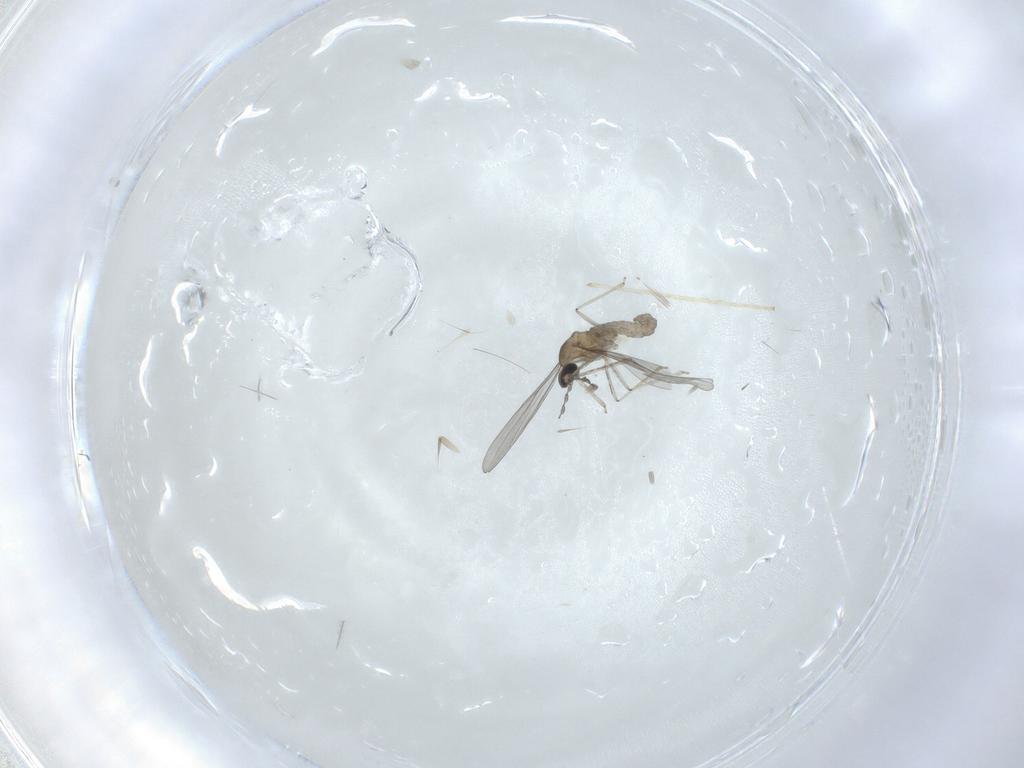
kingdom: Animalia
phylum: Arthropoda
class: Insecta
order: Diptera
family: Cecidomyiidae
